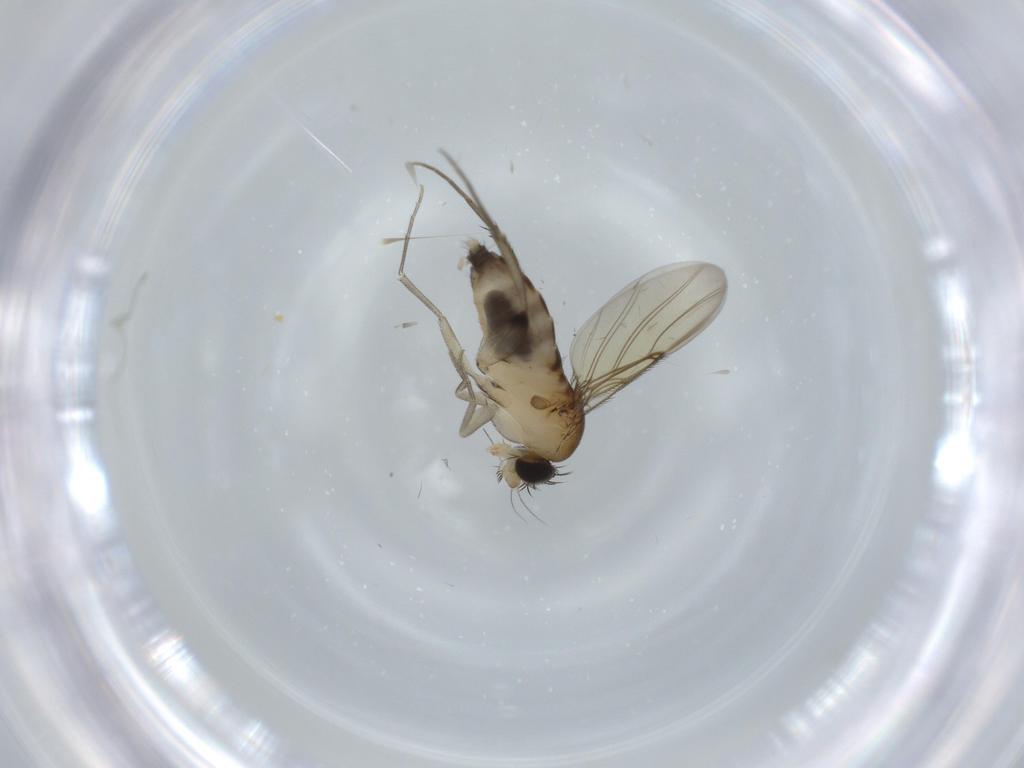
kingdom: Animalia
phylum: Arthropoda
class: Insecta
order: Diptera
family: Phoridae
